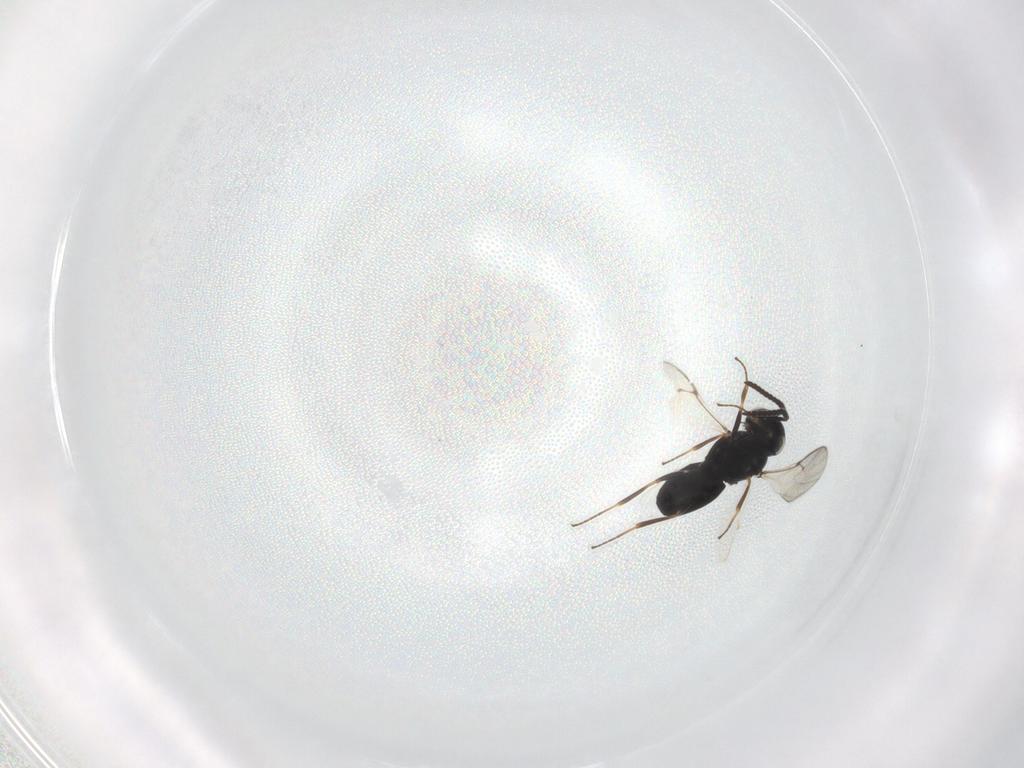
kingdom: Animalia
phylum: Arthropoda
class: Insecta
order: Hymenoptera
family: Scelionidae
